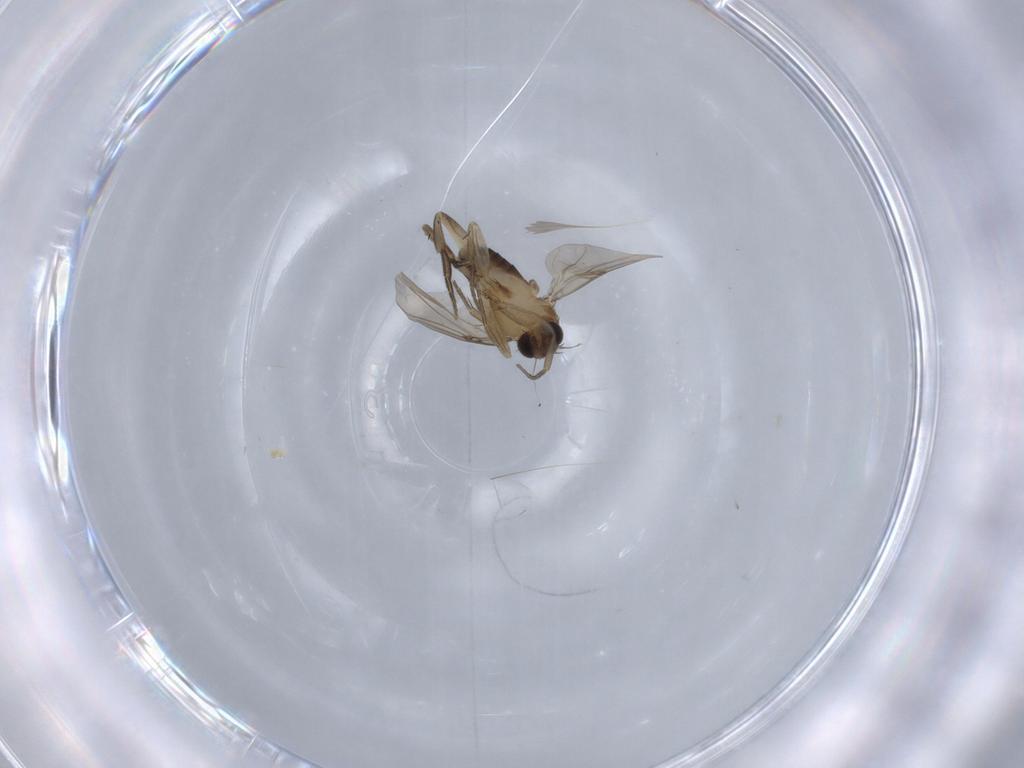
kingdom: Animalia
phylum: Arthropoda
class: Insecta
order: Diptera
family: Phoridae
